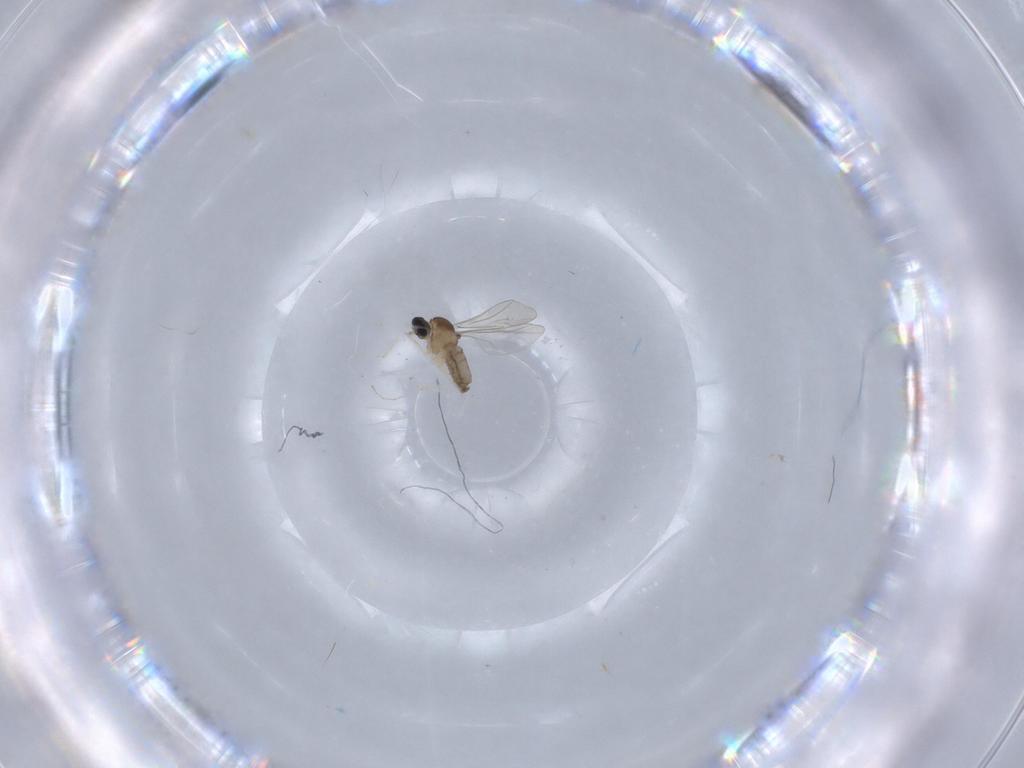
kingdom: Animalia
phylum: Arthropoda
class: Insecta
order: Diptera
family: Cecidomyiidae
